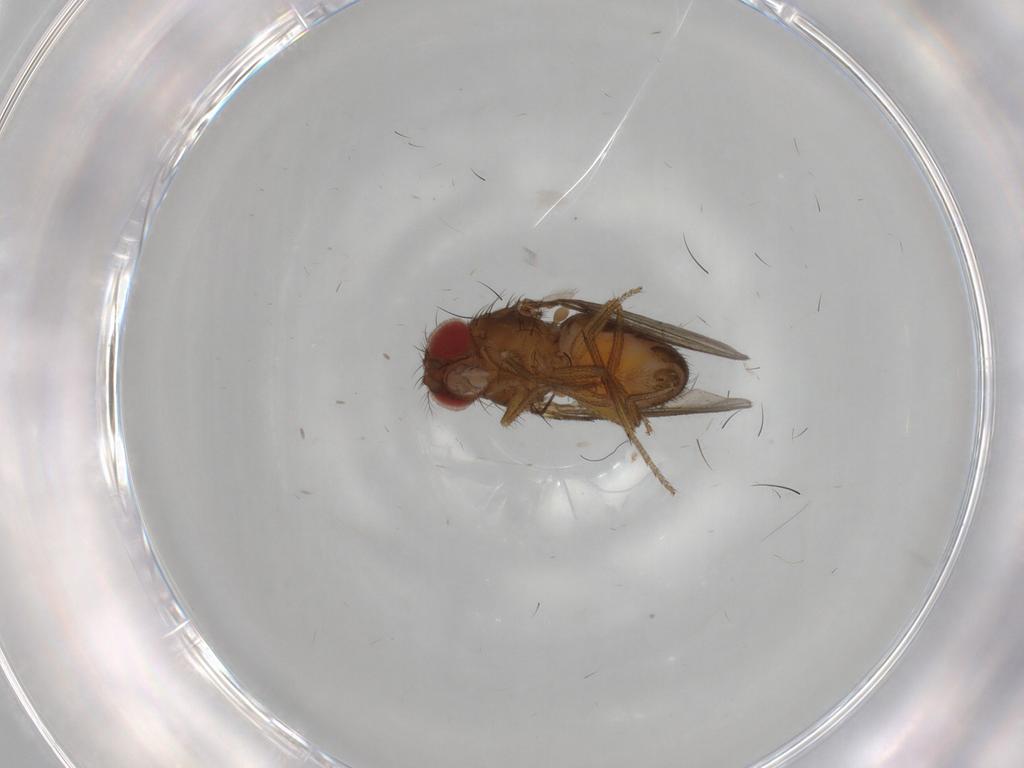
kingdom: Animalia
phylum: Arthropoda
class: Insecta
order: Diptera
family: Drosophilidae
